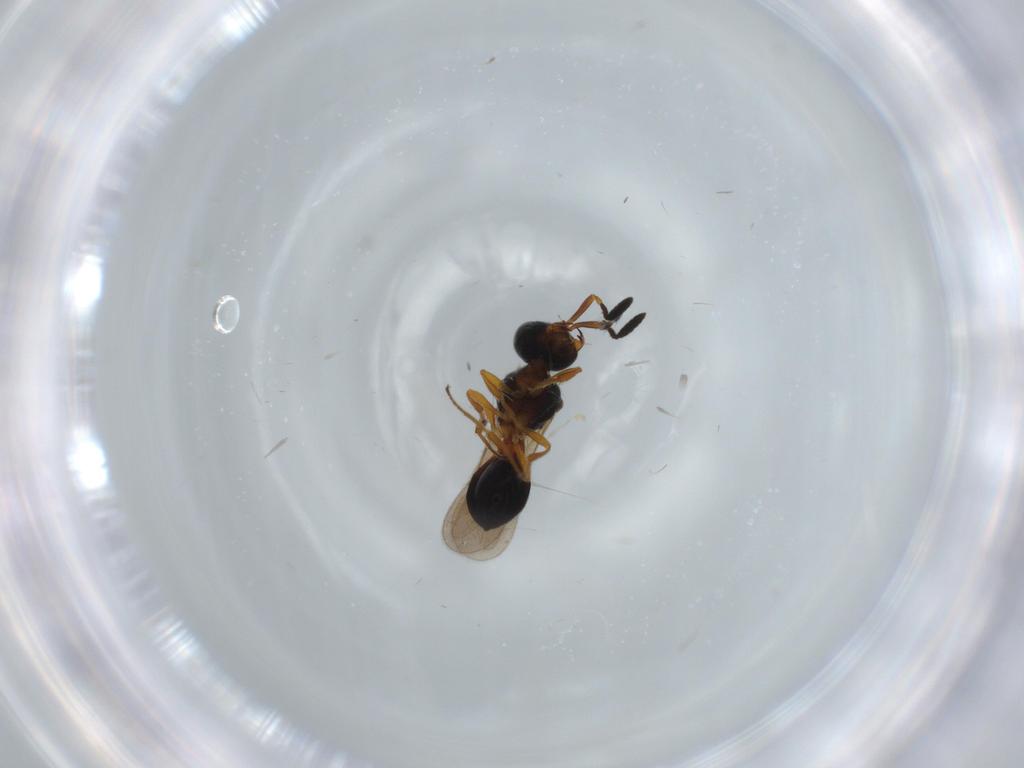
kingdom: Animalia
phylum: Arthropoda
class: Insecta
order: Hymenoptera
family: Scelionidae
